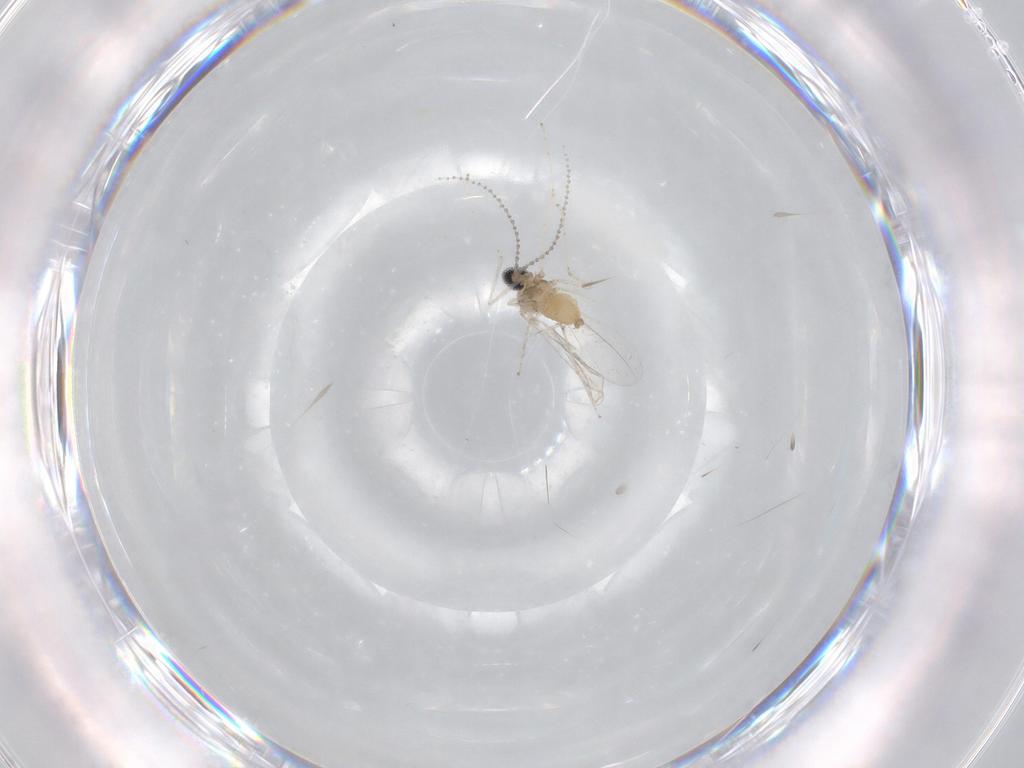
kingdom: Animalia
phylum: Arthropoda
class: Insecta
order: Diptera
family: Cecidomyiidae
